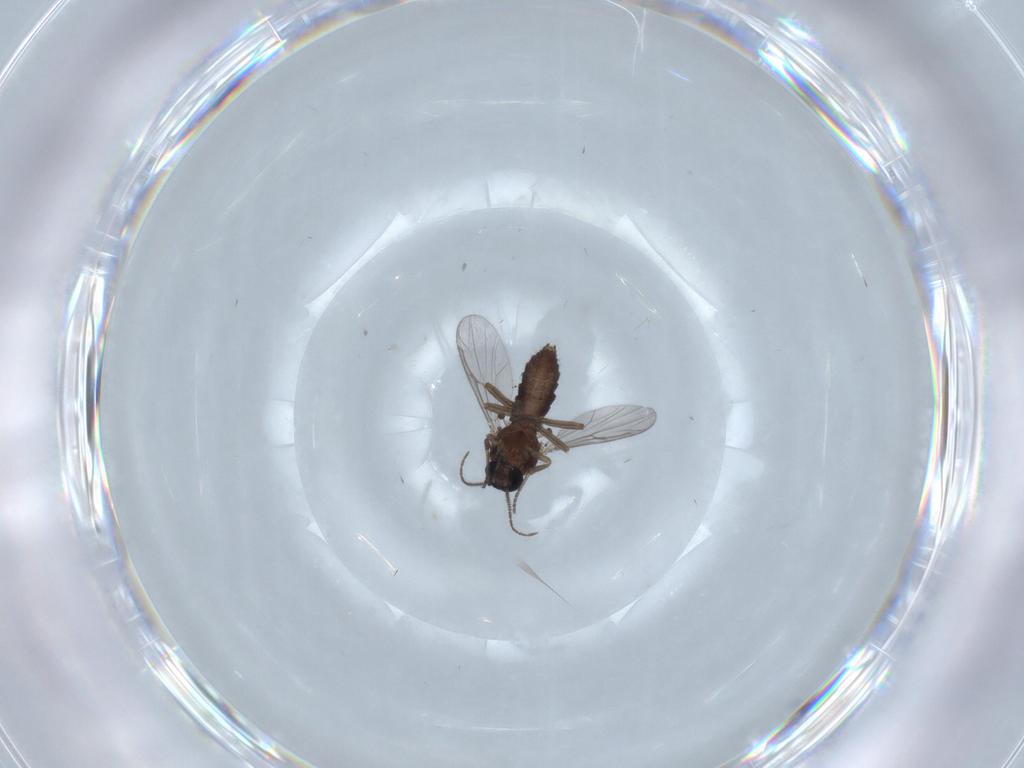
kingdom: Animalia
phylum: Arthropoda
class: Insecta
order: Diptera
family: Ceratopogonidae
